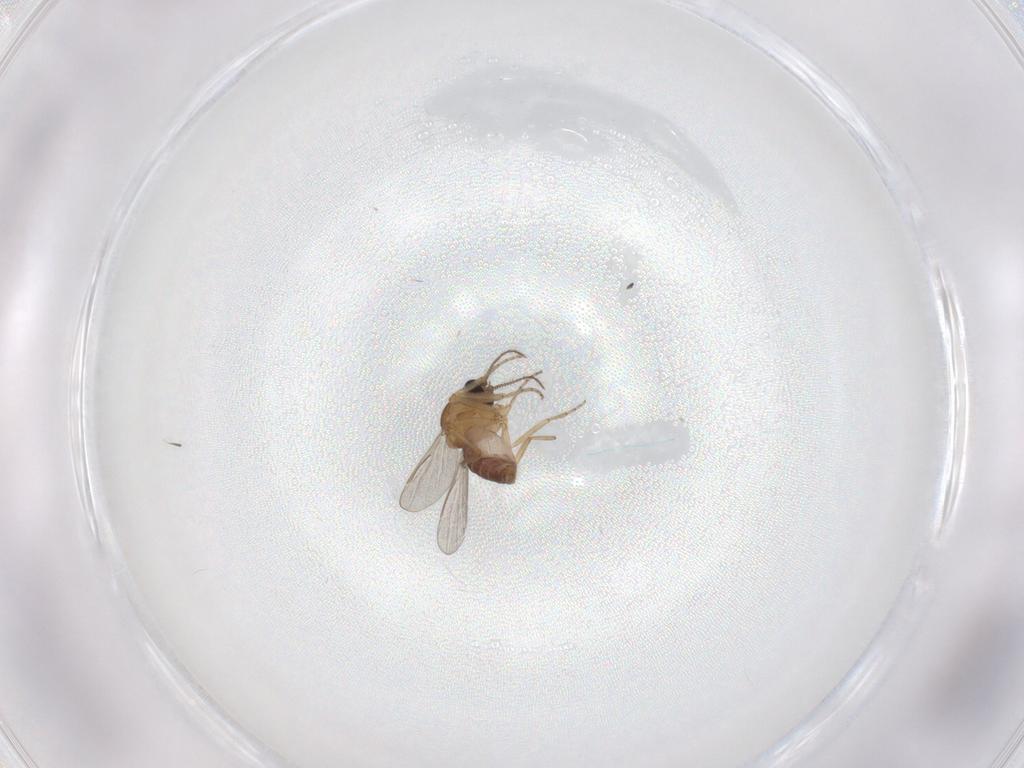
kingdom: Animalia
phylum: Arthropoda
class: Insecta
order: Diptera
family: Ceratopogonidae
